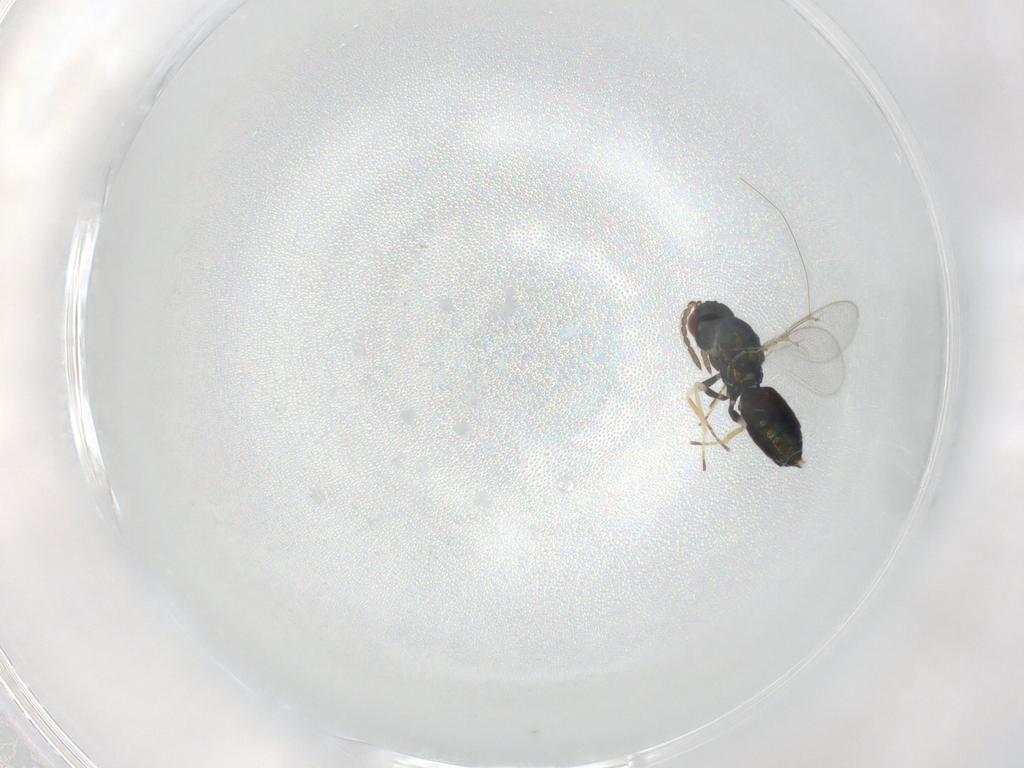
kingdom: Animalia
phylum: Arthropoda
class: Insecta
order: Hymenoptera
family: Eulophidae
